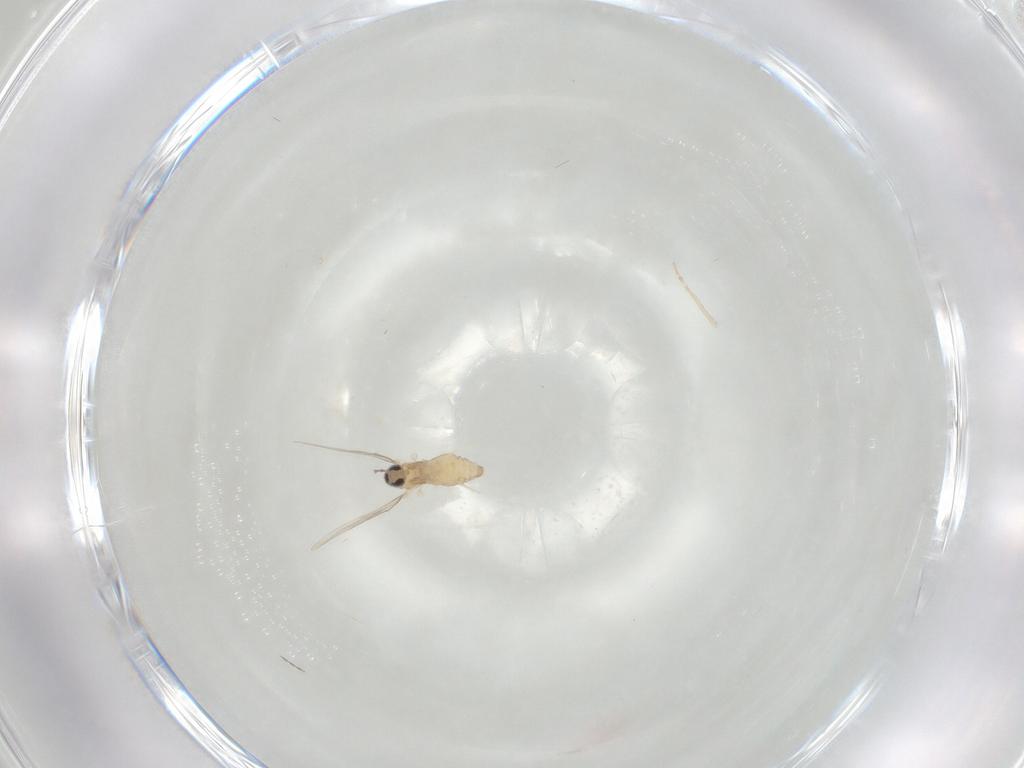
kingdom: Animalia
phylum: Arthropoda
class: Insecta
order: Diptera
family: Cecidomyiidae
